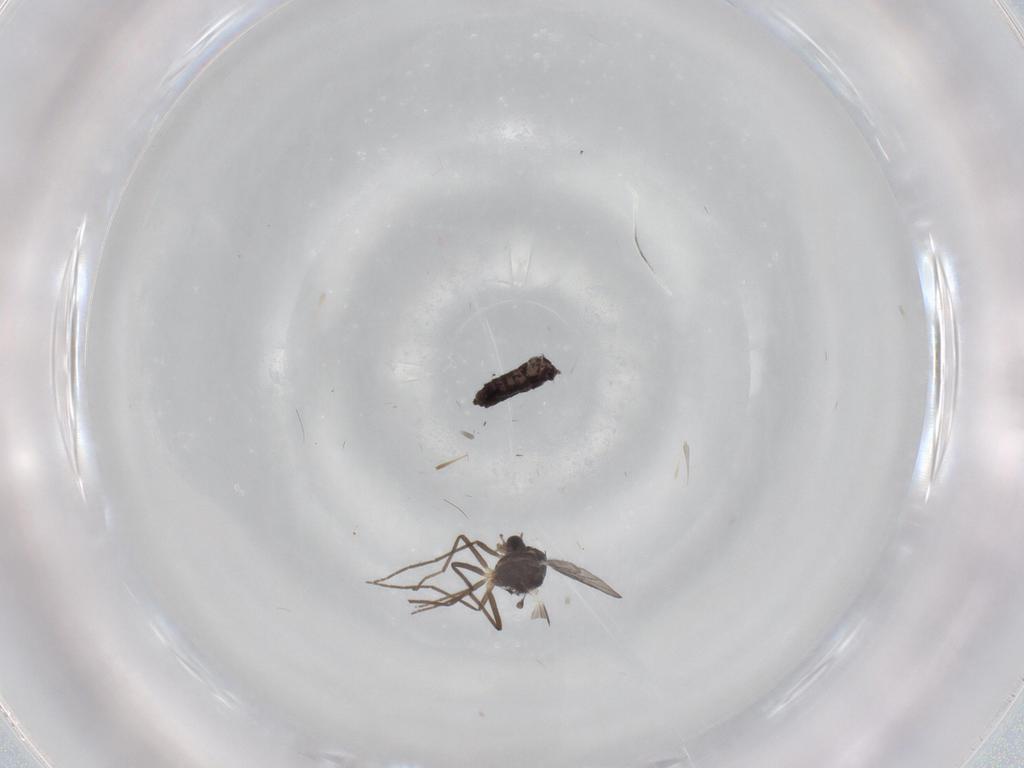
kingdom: Animalia
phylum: Arthropoda
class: Insecta
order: Diptera
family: Chironomidae
